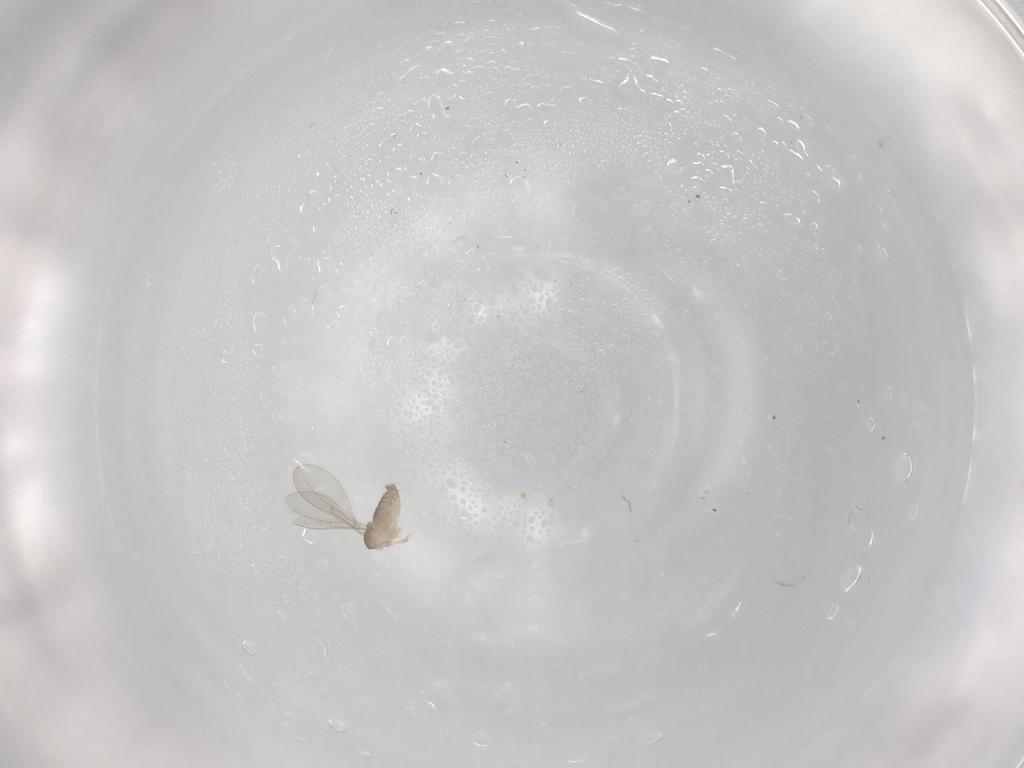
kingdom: Animalia
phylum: Arthropoda
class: Insecta
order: Diptera
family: Cecidomyiidae
